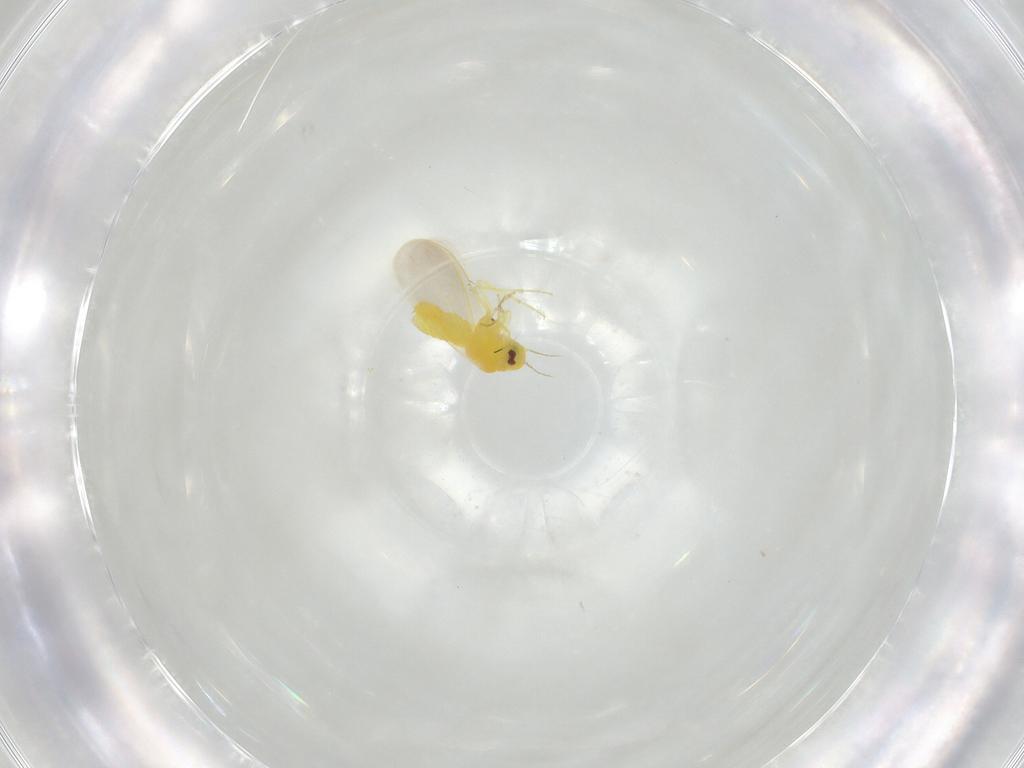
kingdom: Animalia
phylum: Arthropoda
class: Insecta
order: Hemiptera
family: Aleyrodidae
